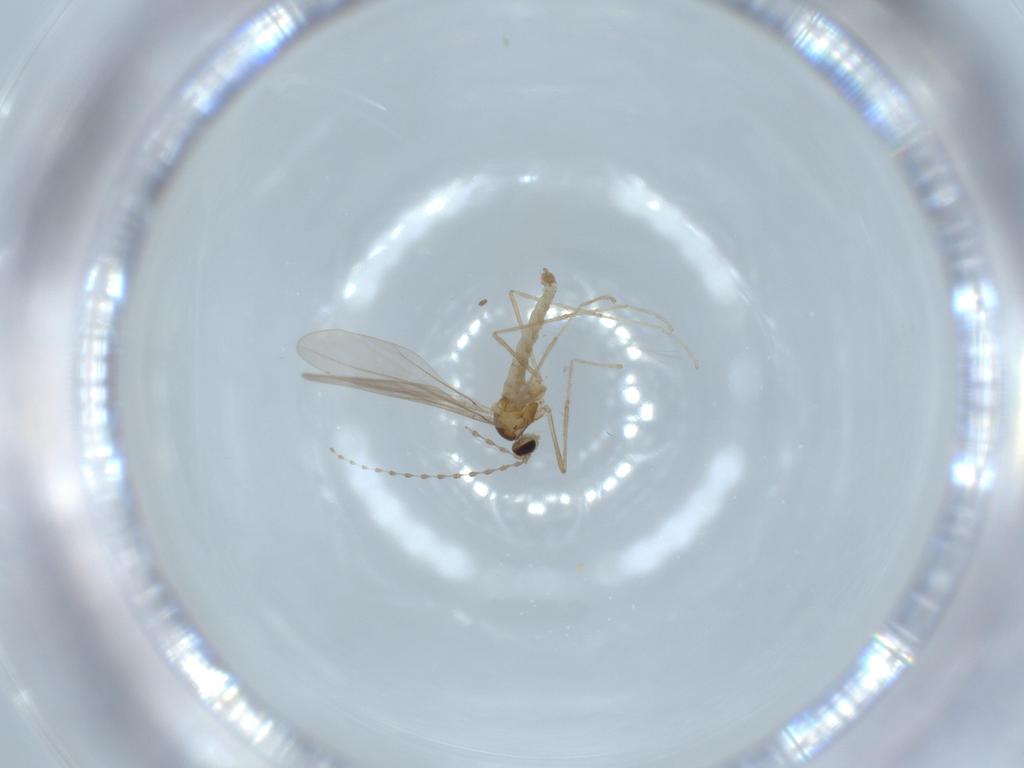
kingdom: Animalia
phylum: Arthropoda
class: Insecta
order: Diptera
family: Cecidomyiidae
